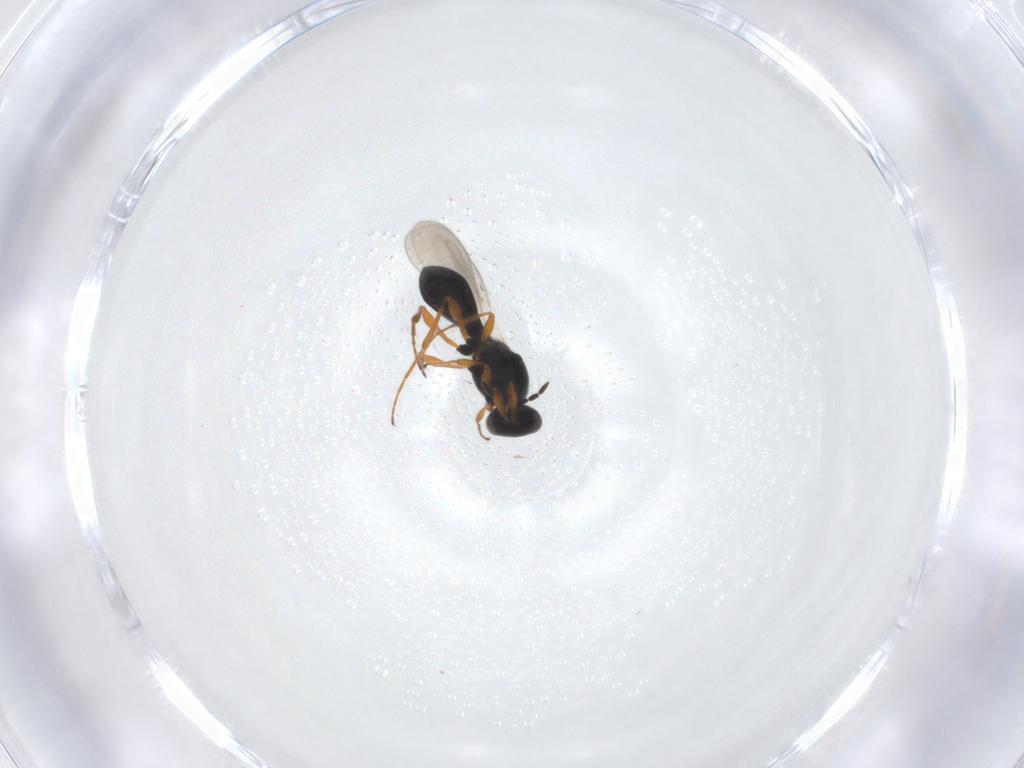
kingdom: Animalia
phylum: Arthropoda
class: Insecta
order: Hymenoptera
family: Platygastridae
